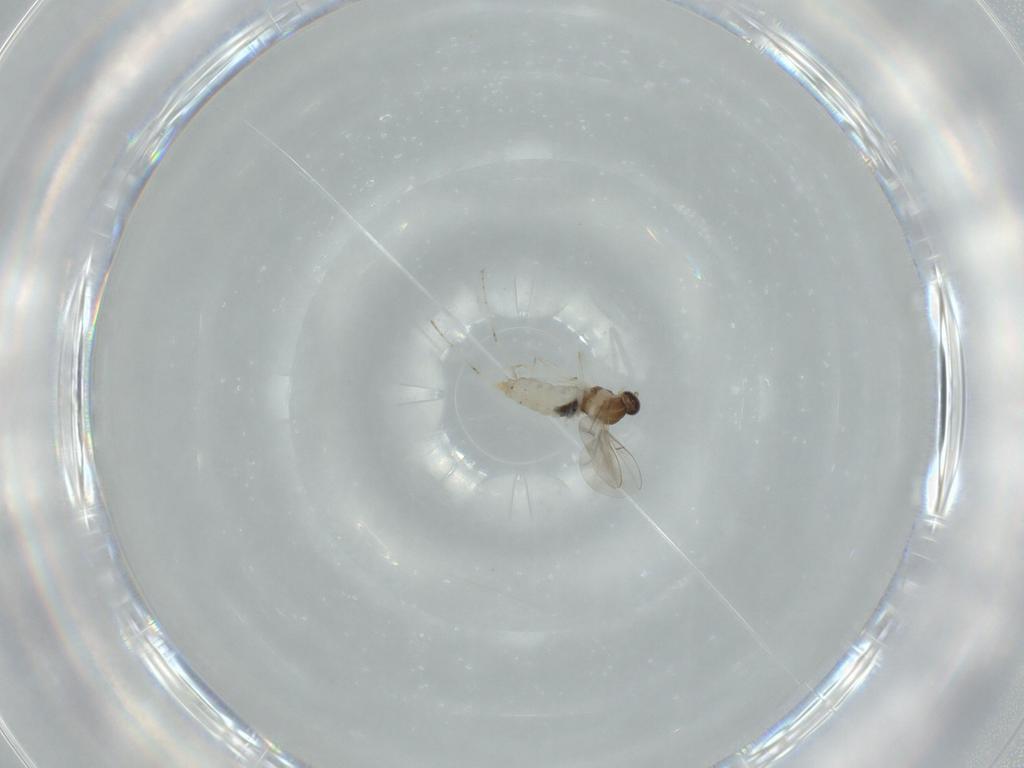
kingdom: Animalia
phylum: Arthropoda
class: Insecta
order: Diptera
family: Cecidomyiidae
